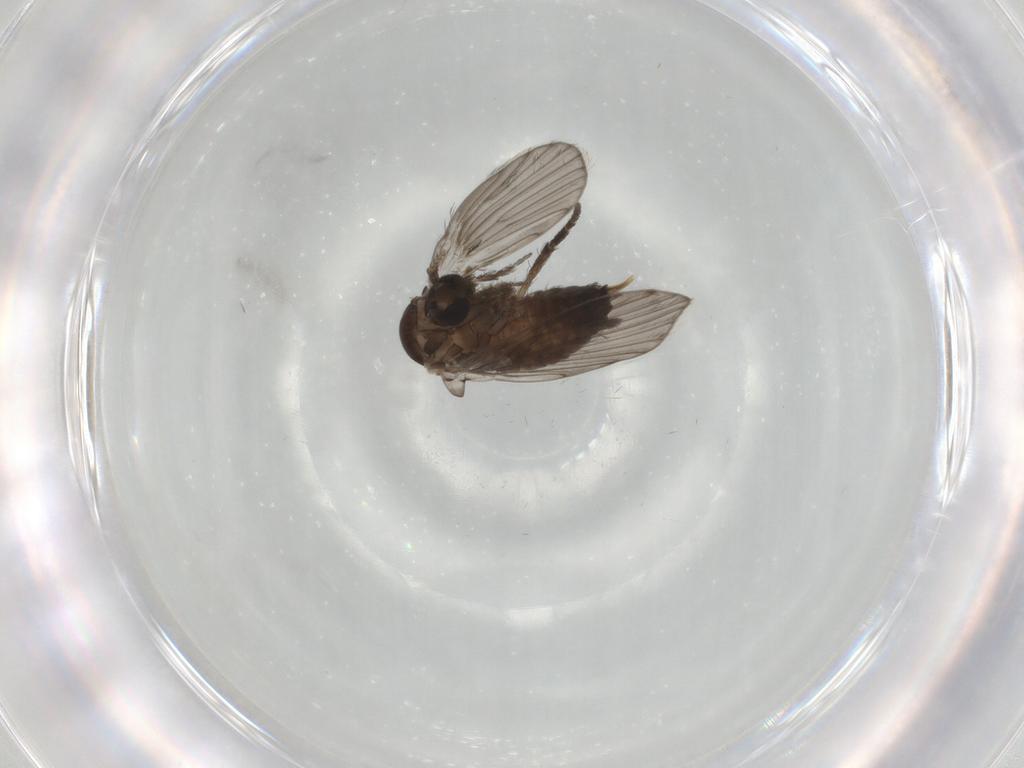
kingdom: Animalia
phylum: Arthropoda
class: Insecta
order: Diptera
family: Psychodidae
